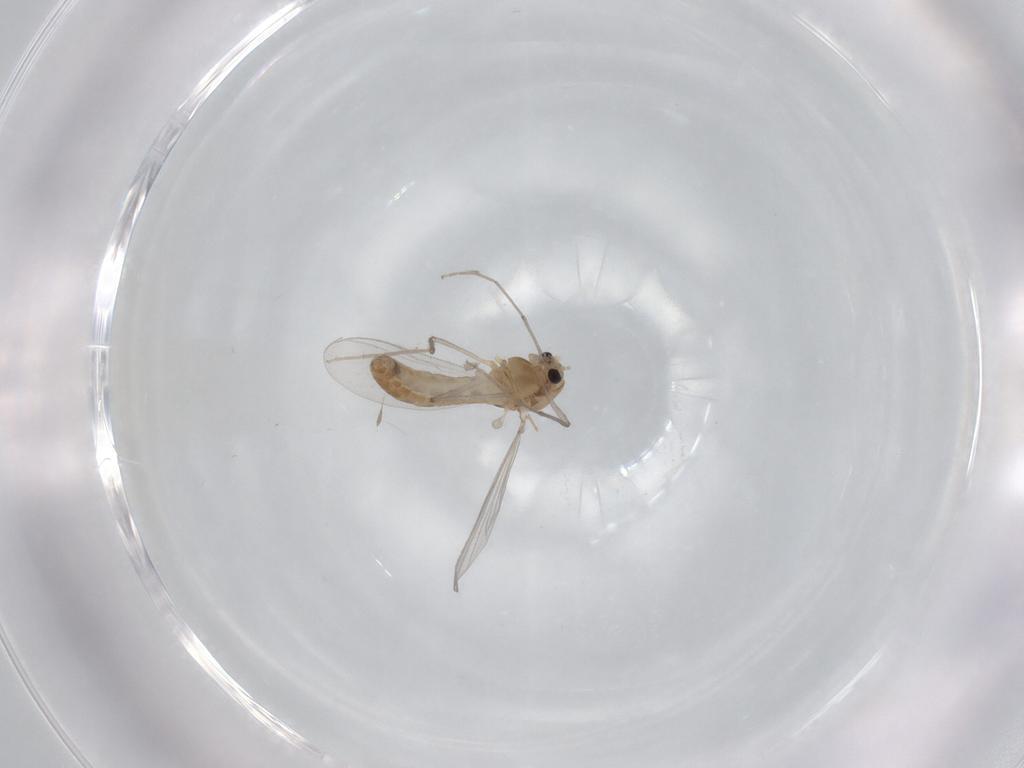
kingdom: Animalia
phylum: Arthropoda
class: Insecta
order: Diptera
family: Chironomidae
